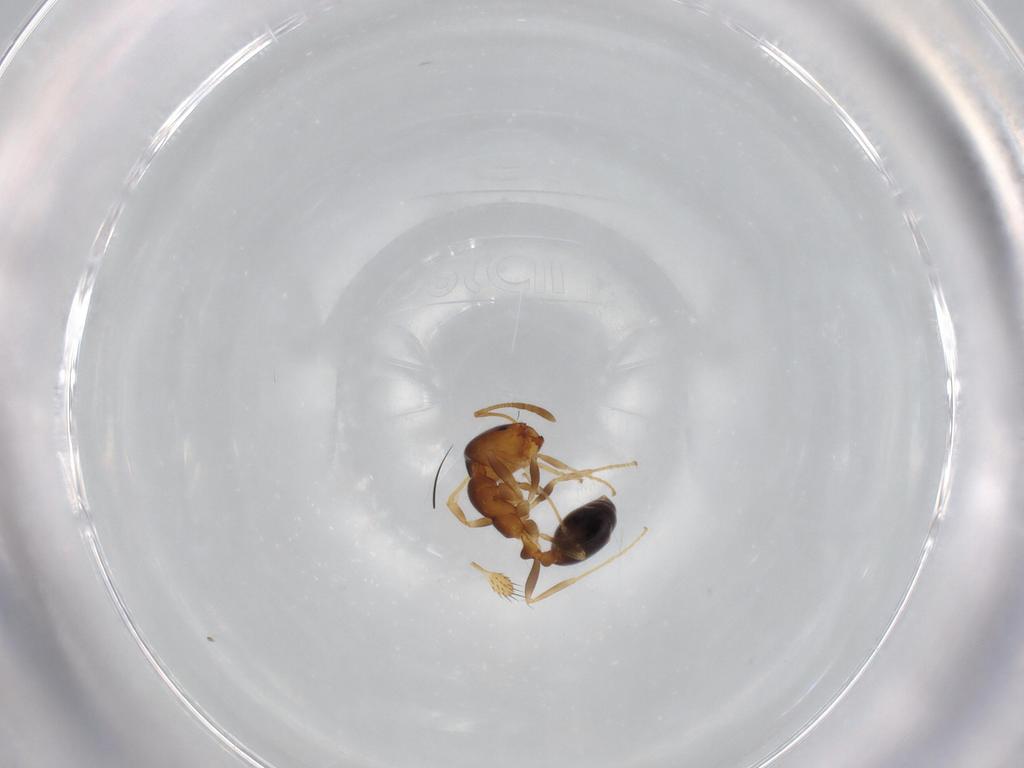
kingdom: Animalia
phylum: Arthropoda
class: Insecta
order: Hymenoptera
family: Formicidae
